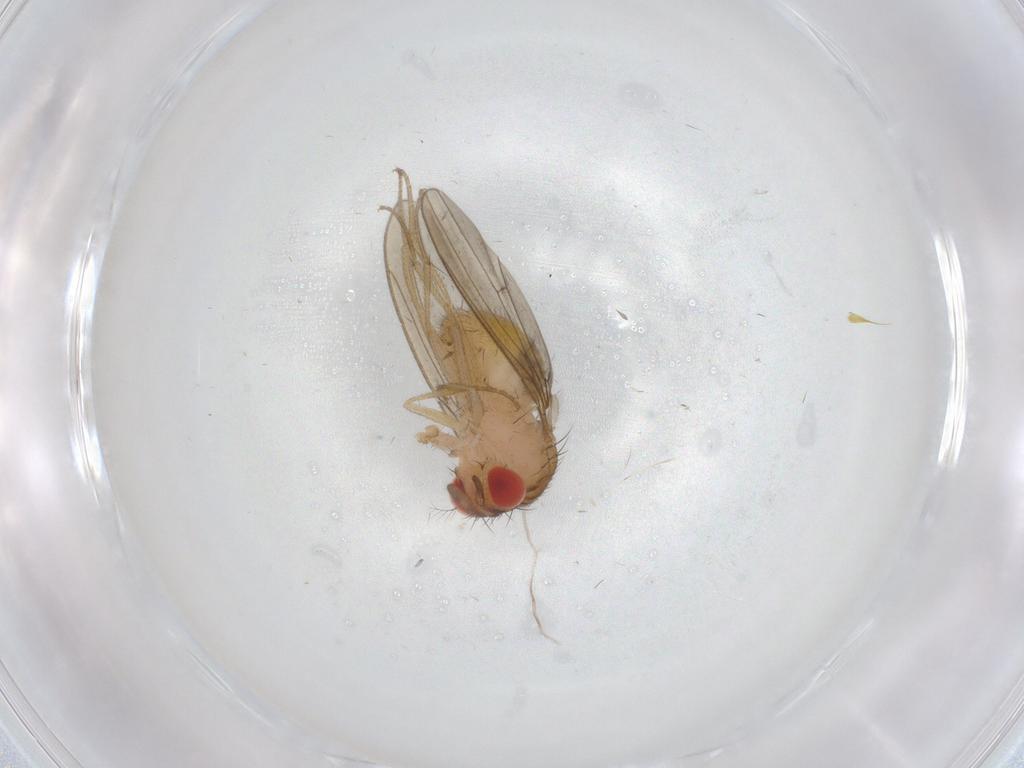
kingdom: Animalia
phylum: Arthropoda
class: Insecta
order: Diptera
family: Drosophilidae
